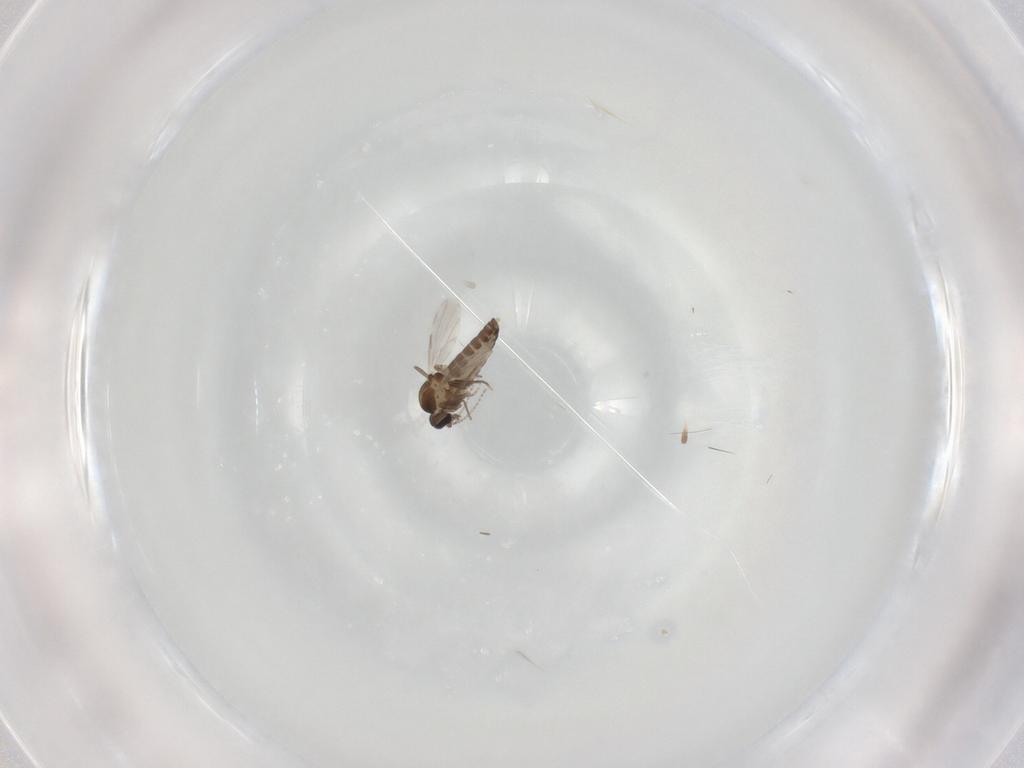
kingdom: Animalia
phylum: Arthropoda
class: Insecta
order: Diptera
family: Ceratopogonidae
